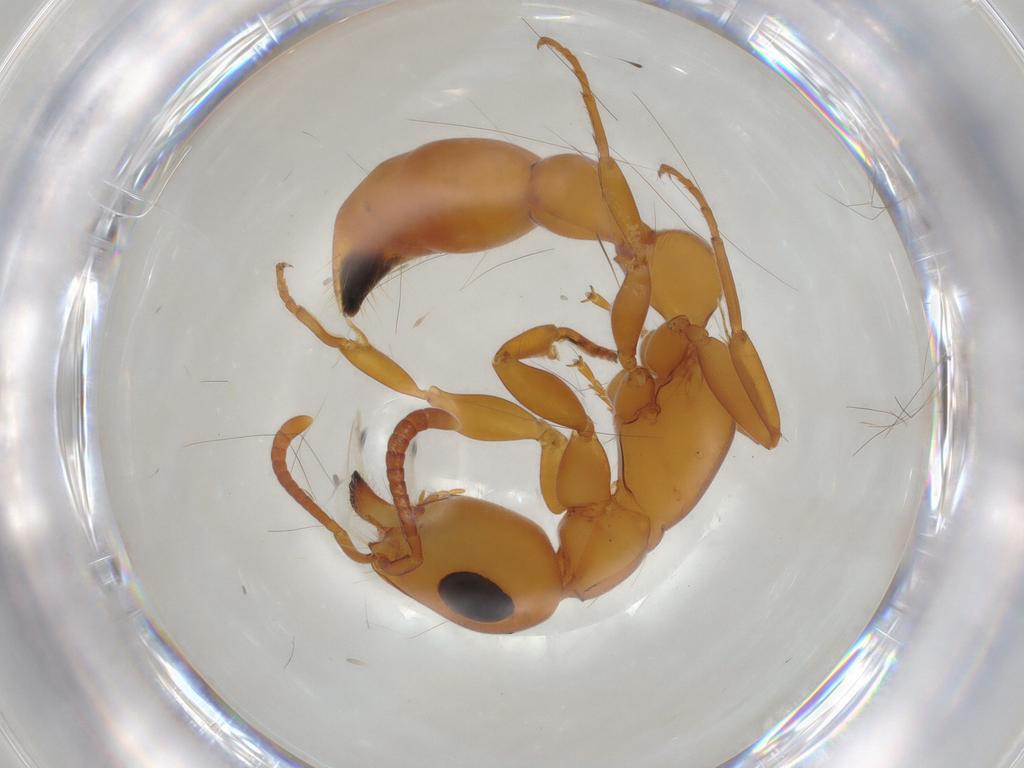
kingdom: Animalia
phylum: Arthropoda
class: Insecta
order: Hymenoptera
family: Formicidae
